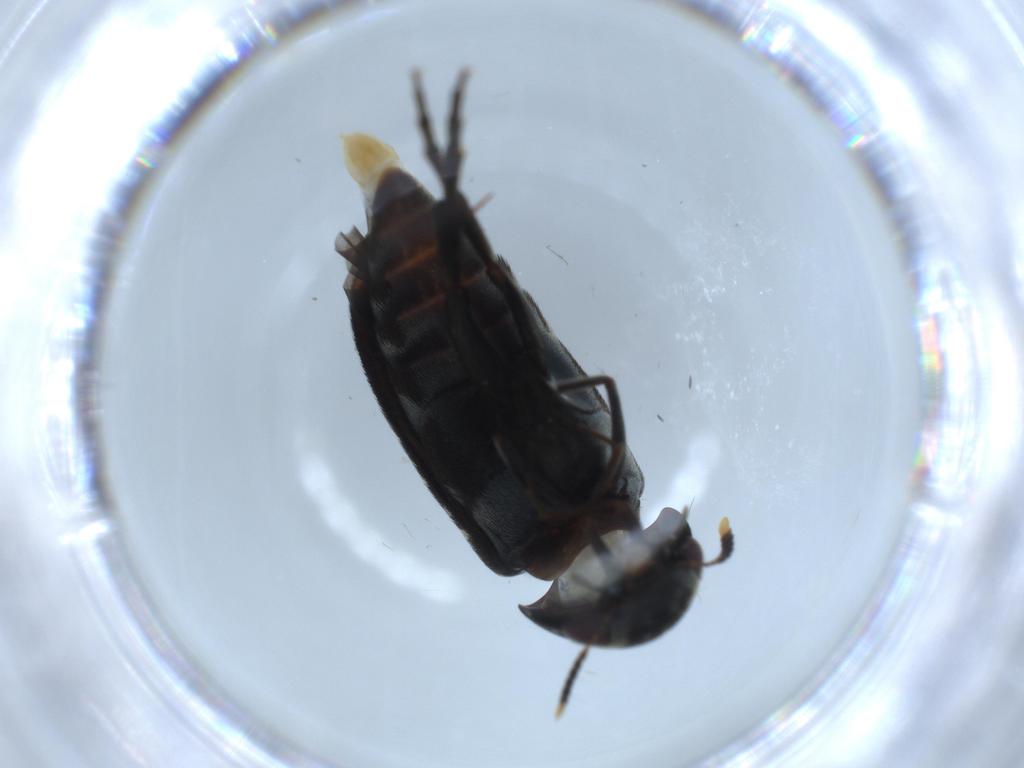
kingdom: Animalia
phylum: Arthropoda
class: Insecta
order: Coleoptera
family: Mordellidae
